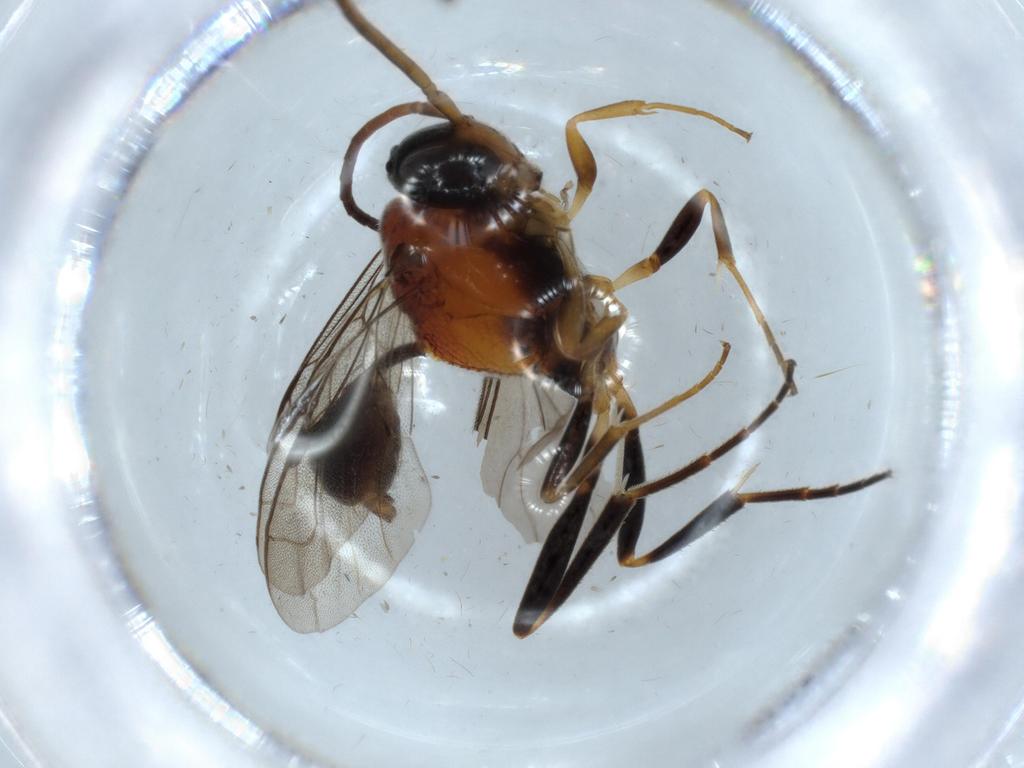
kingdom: Animalia
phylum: Arthropoda
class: Insecta
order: Hymenoptera
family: Evaniidae
